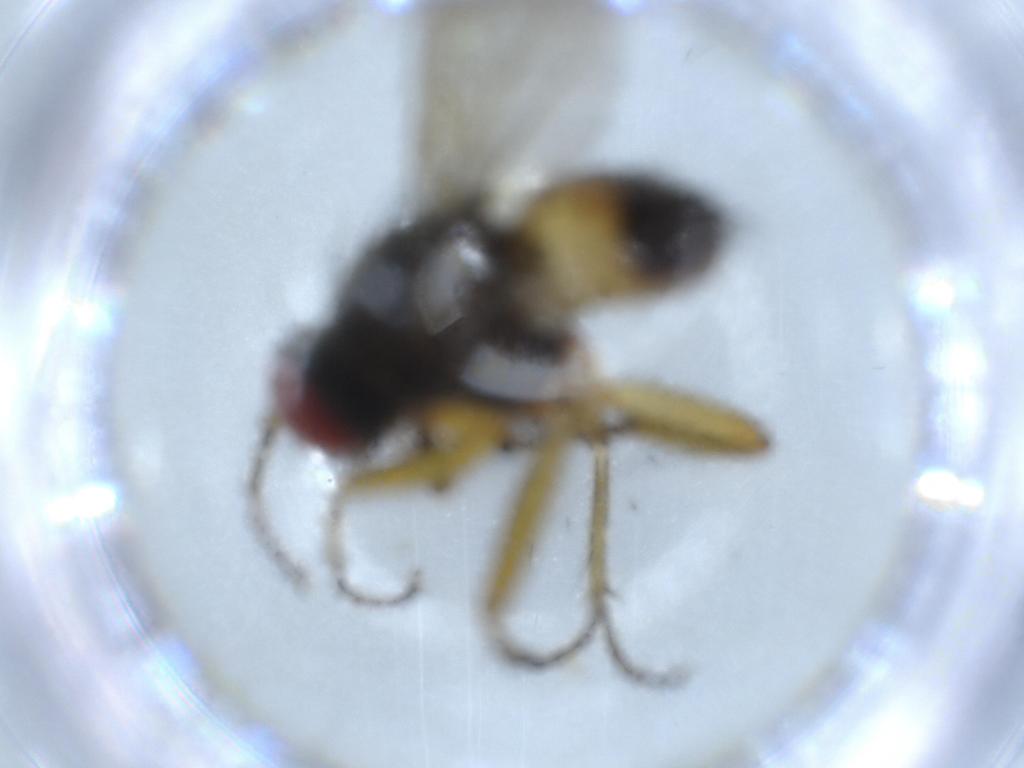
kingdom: Animalia
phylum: Arthropoda
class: Insecta
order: Diptera
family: Muscidae
